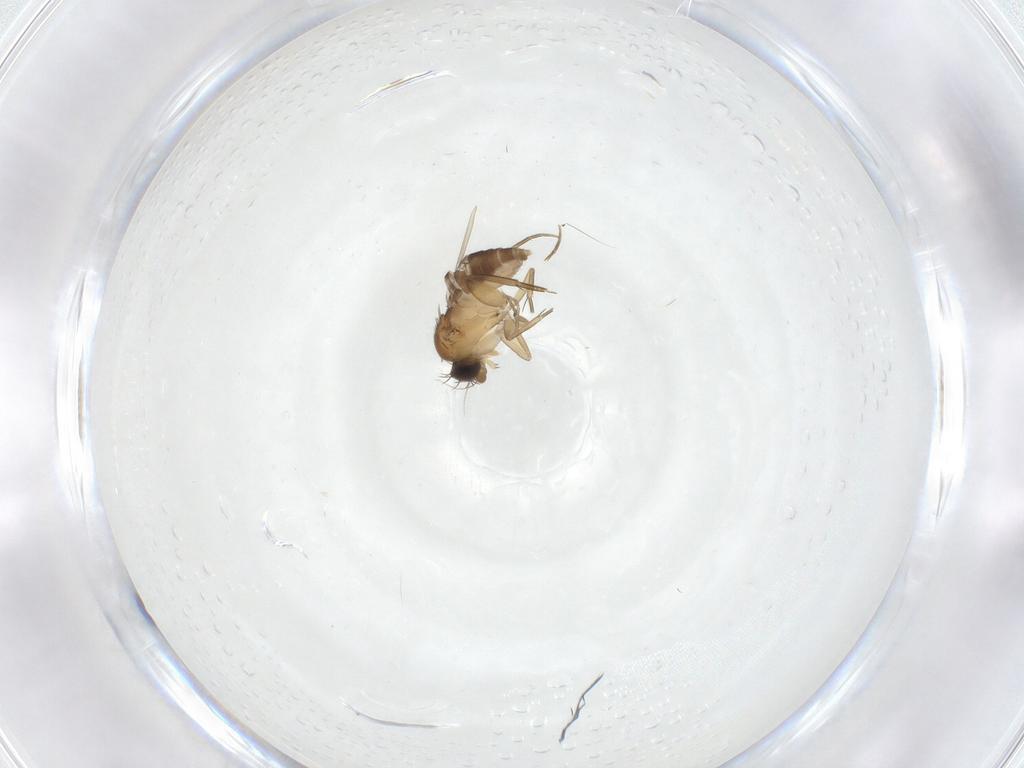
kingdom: Animalia
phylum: Arthropoda
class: Insecta
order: Diptera
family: Phoridae
